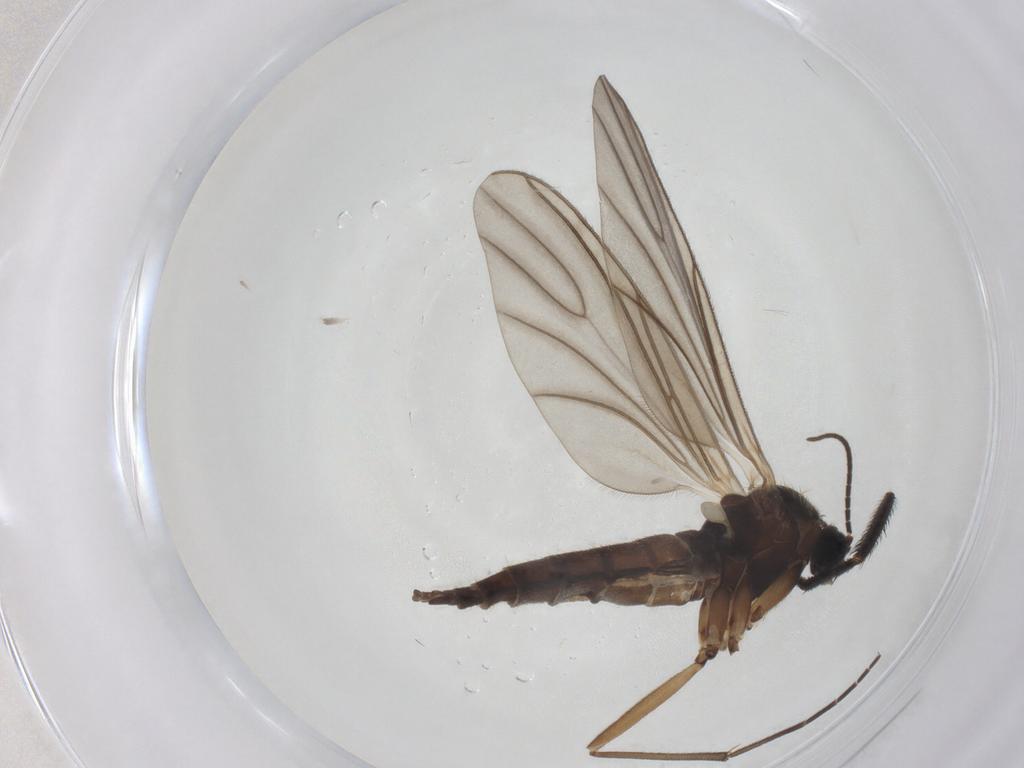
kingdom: Animalia
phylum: Arthropoda
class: Insecta
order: Diptera
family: Sciaridae
